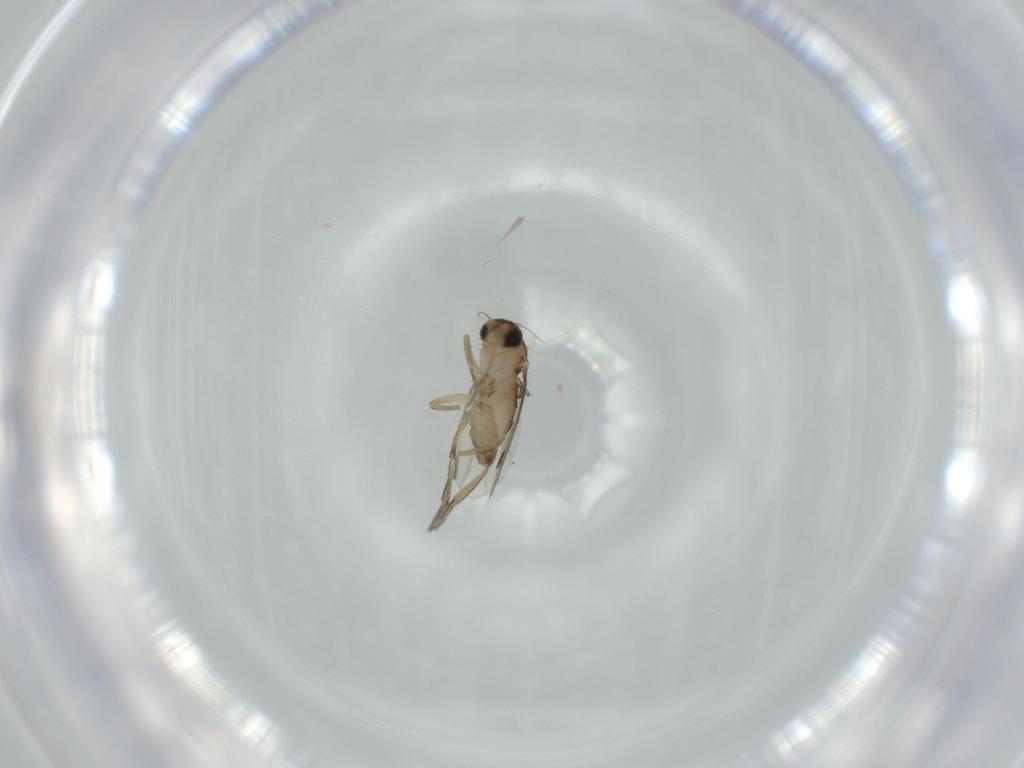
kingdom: Animalia
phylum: Arthropoda
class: Insecta
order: Diptera
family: Phoridae
